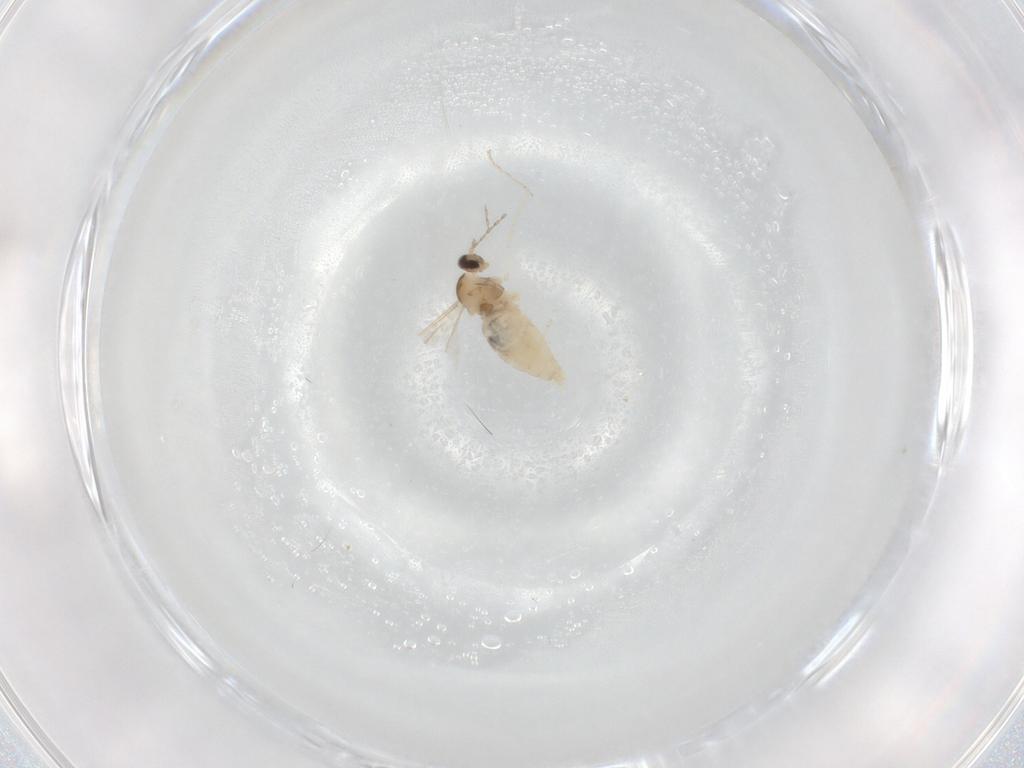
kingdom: Animalia
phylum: Arthropoda
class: Insecta
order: Diptera
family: Cecidomyiidae
